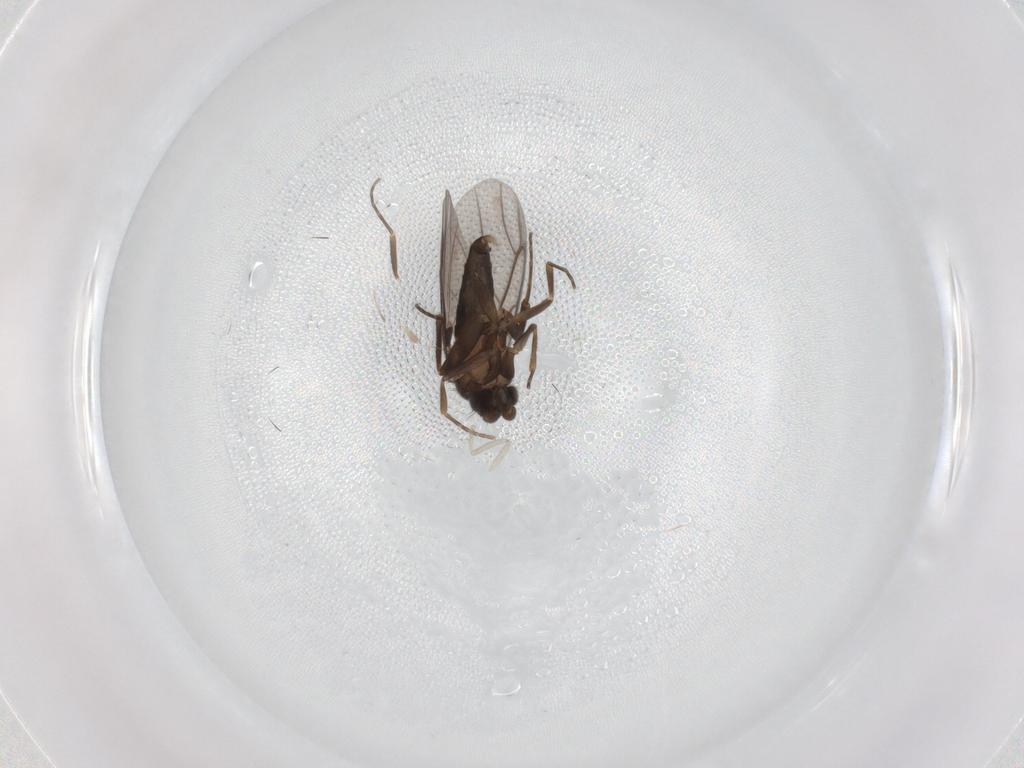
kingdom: Animalia
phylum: Arthropoda
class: Insecta
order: Diptera
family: Cecidomyiidae
